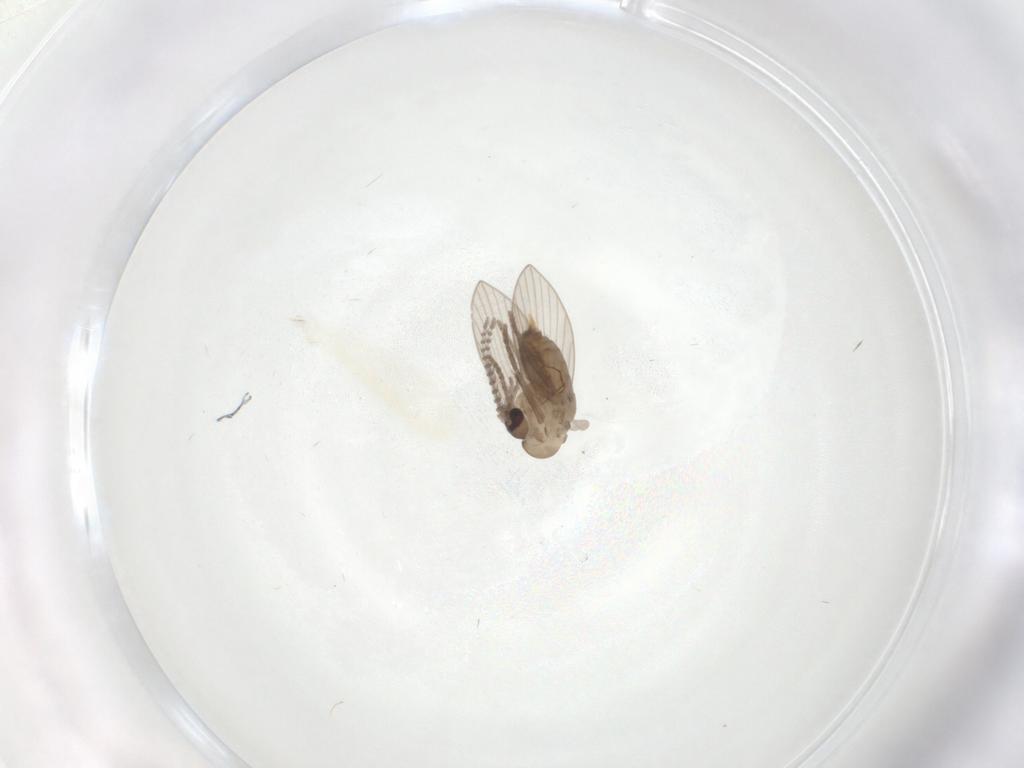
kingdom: Animalia
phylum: Arthropoda
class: Insecta
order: Diptera
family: Psychodidae
